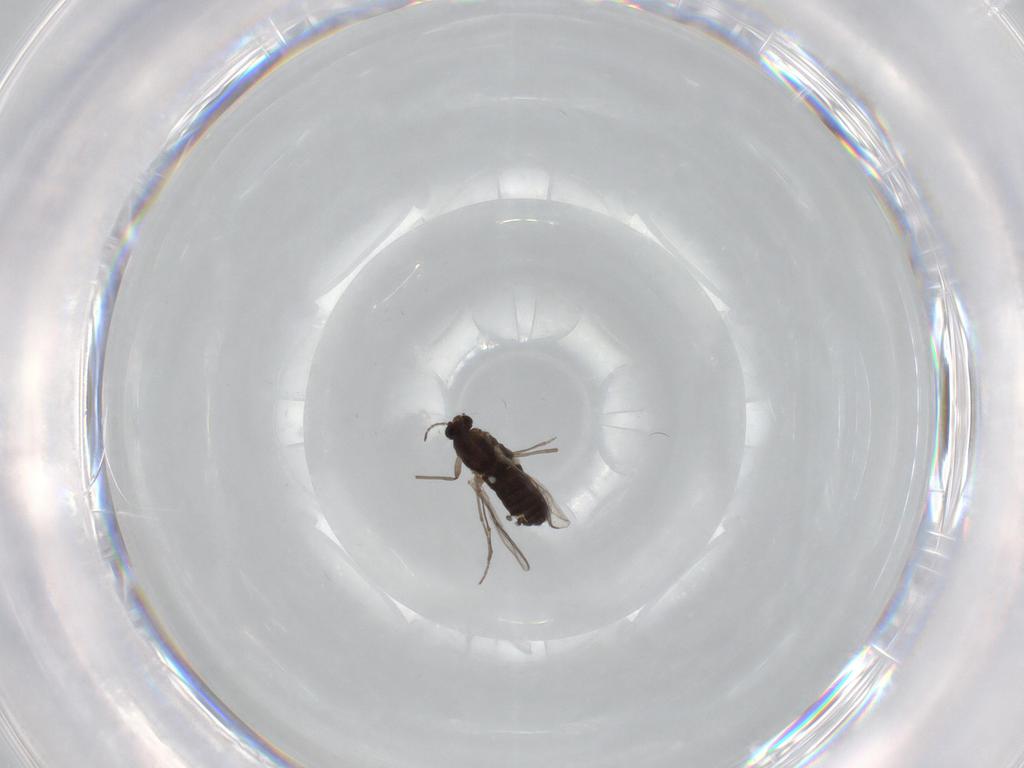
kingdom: Animalia
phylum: Arthropoda
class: Insecta
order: Diptera
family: Chironomidae
